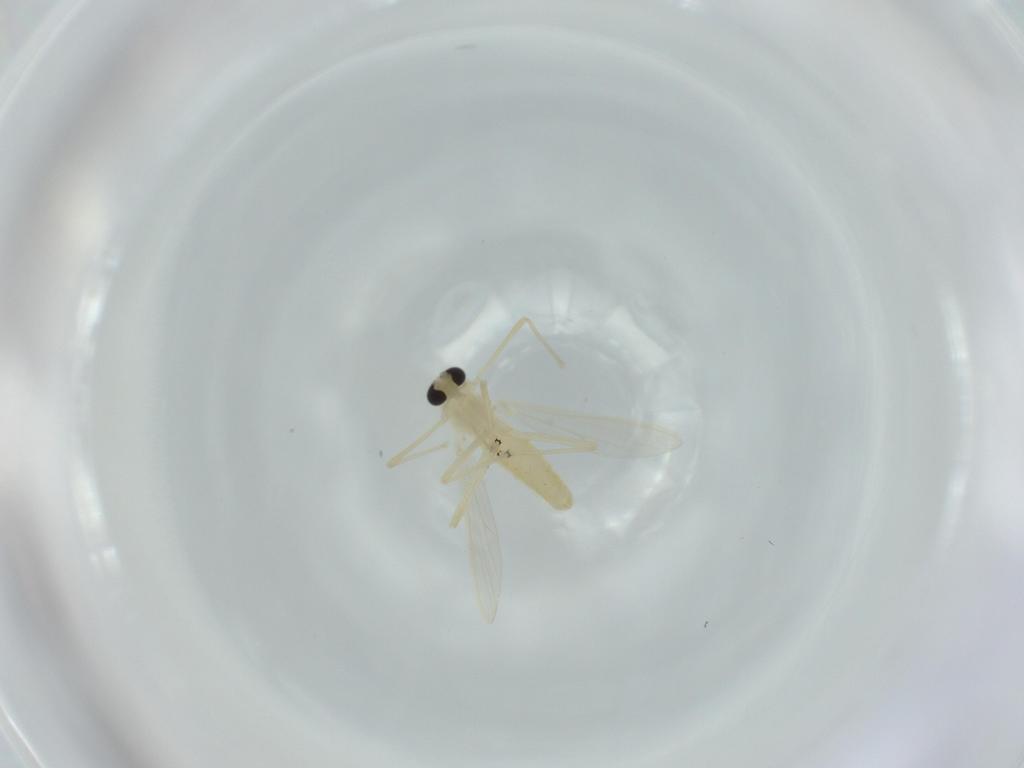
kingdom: Animalia
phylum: Arthropoda
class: Insecta
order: Diptera
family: Chironomidae
